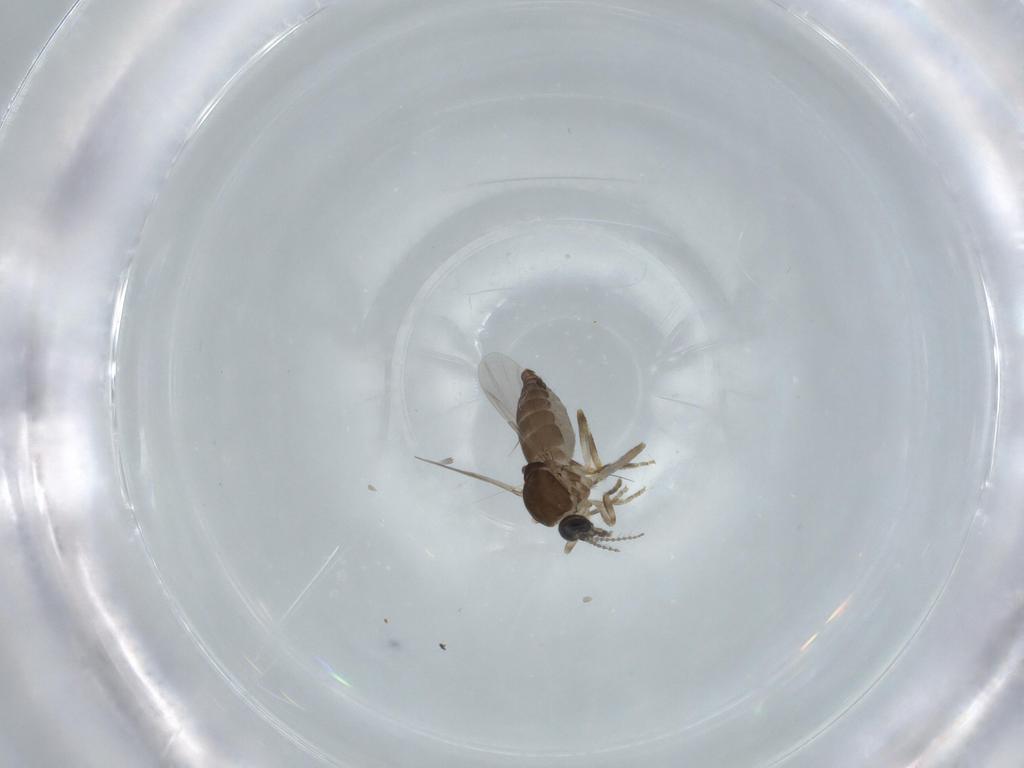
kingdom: Animalia
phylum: Arthropoda
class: Insecta
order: Diptera
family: Ceratopogonidae
